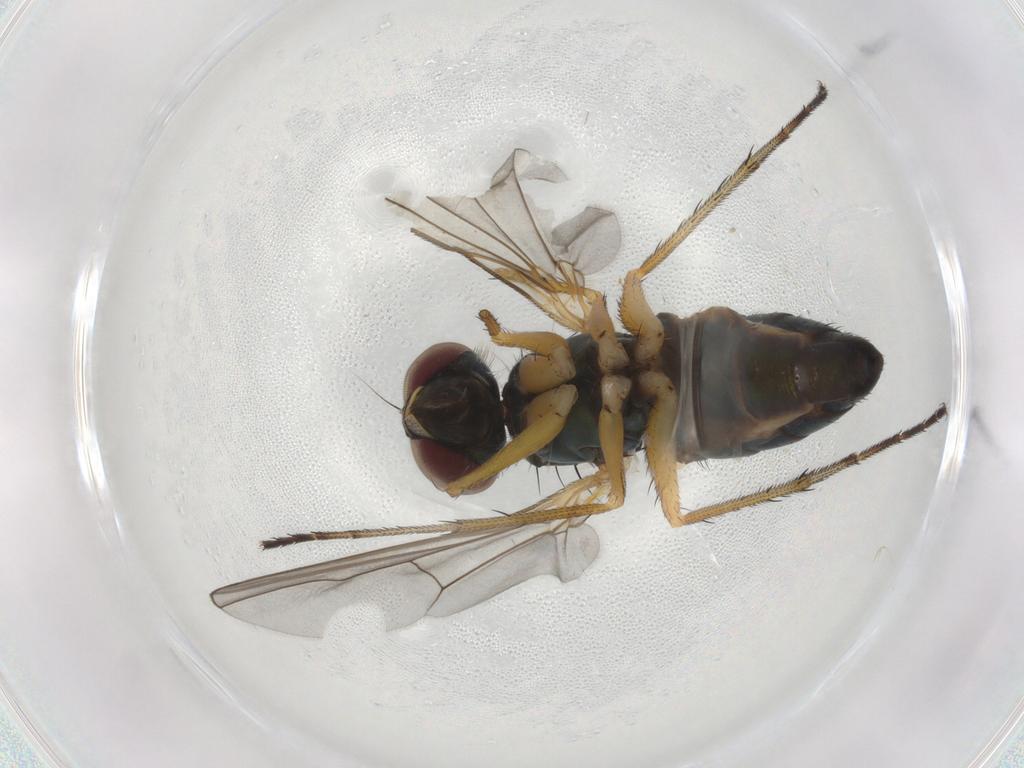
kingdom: Animalia
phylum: Arthropoda
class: Insecta
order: Diptera
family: Dolichopodidae
